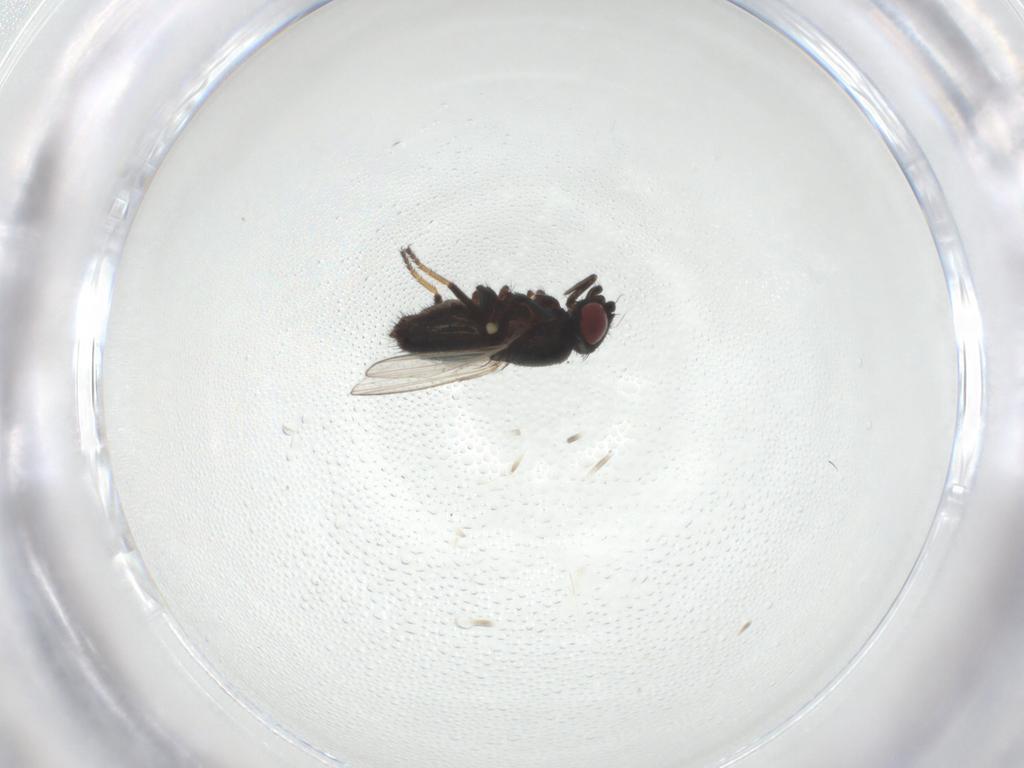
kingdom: Animalia
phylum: Arthropoda
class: Insecta
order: Diptera
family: Milichiidae
